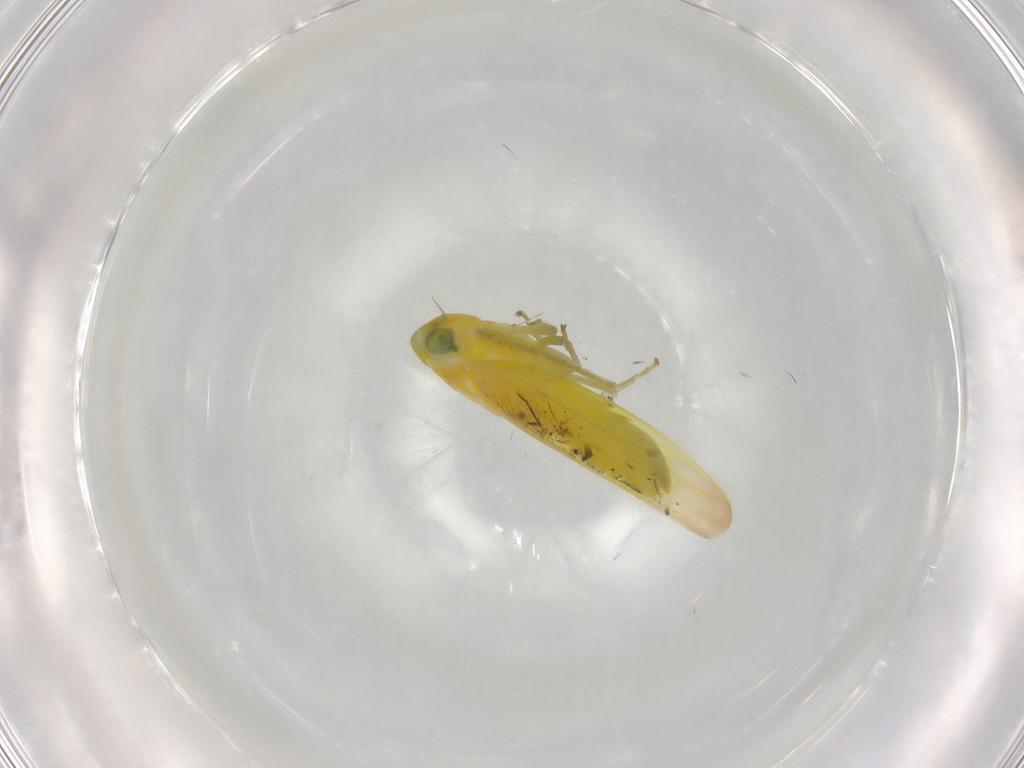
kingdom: Animalia
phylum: Arthropoda
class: Insecta
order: Hemiptera
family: Cicadellidae
